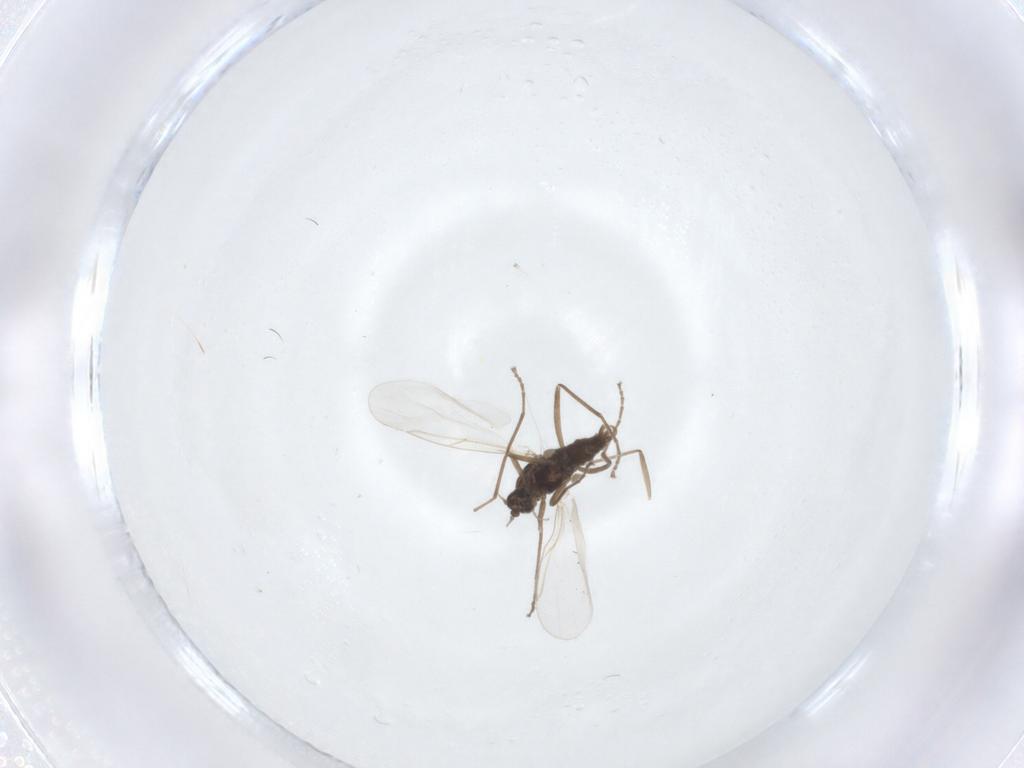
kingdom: Animalia
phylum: Arthropoda
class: Insecta
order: Diptera
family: Cecidomyiidae
